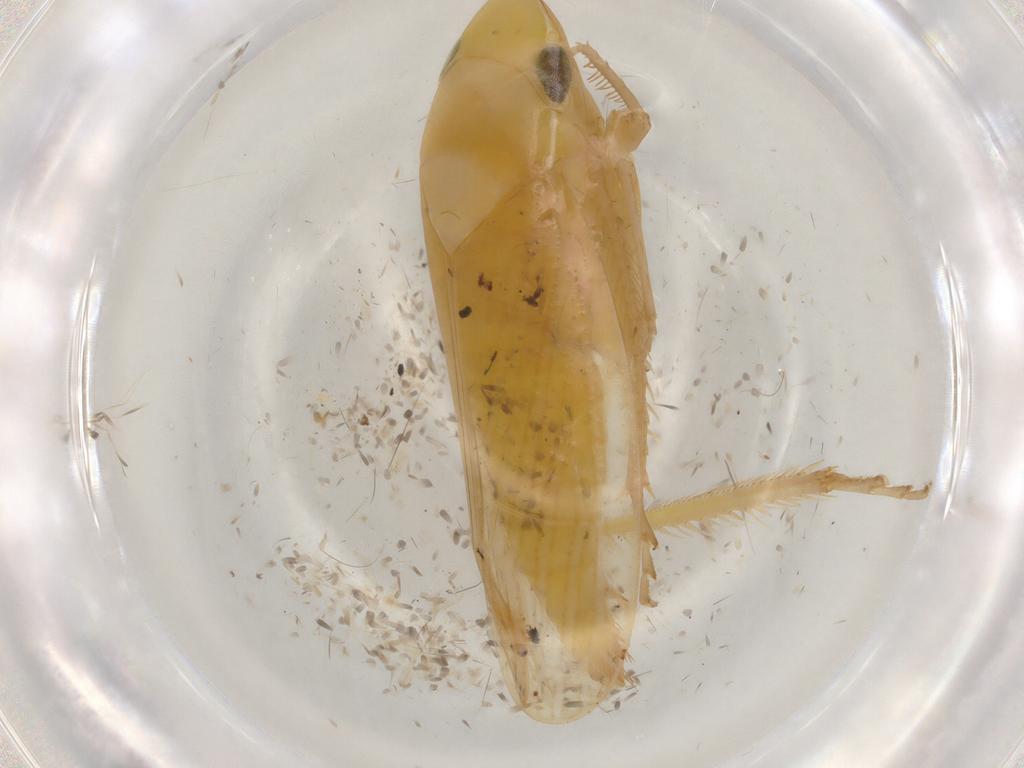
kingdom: Animalia
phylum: Arthropoda
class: Insecta
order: Hemiptera
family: Cicadellidae
